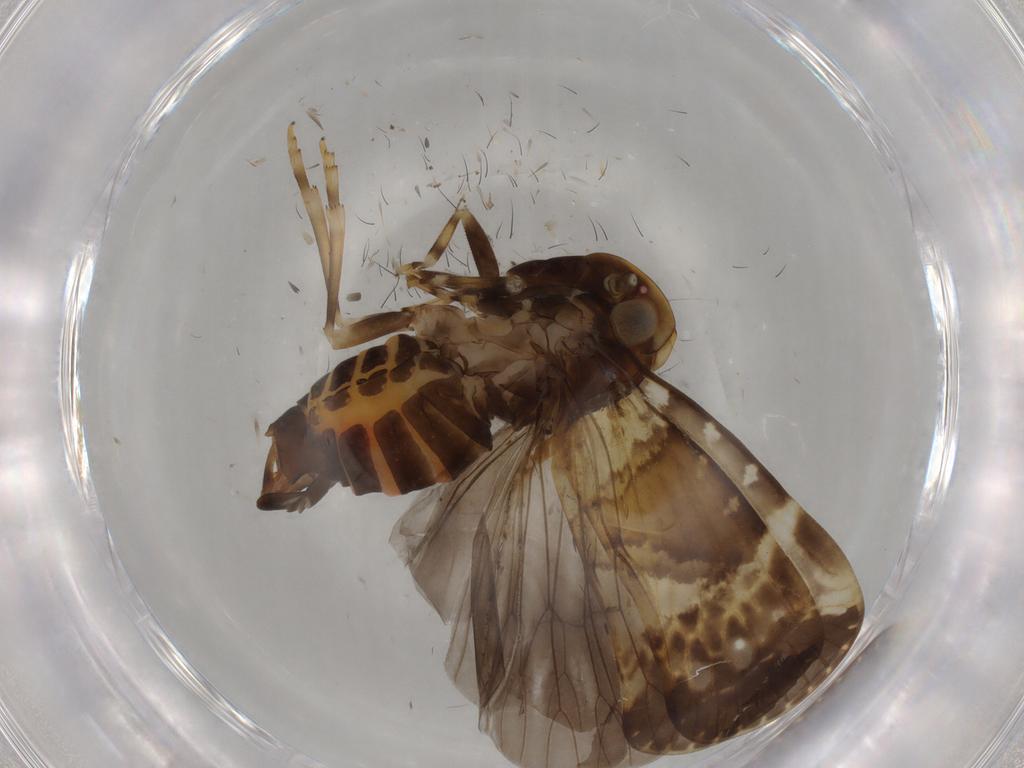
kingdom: Animalia
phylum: Arthropoda
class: Insecta
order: Hemiptera
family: Cixiidae
